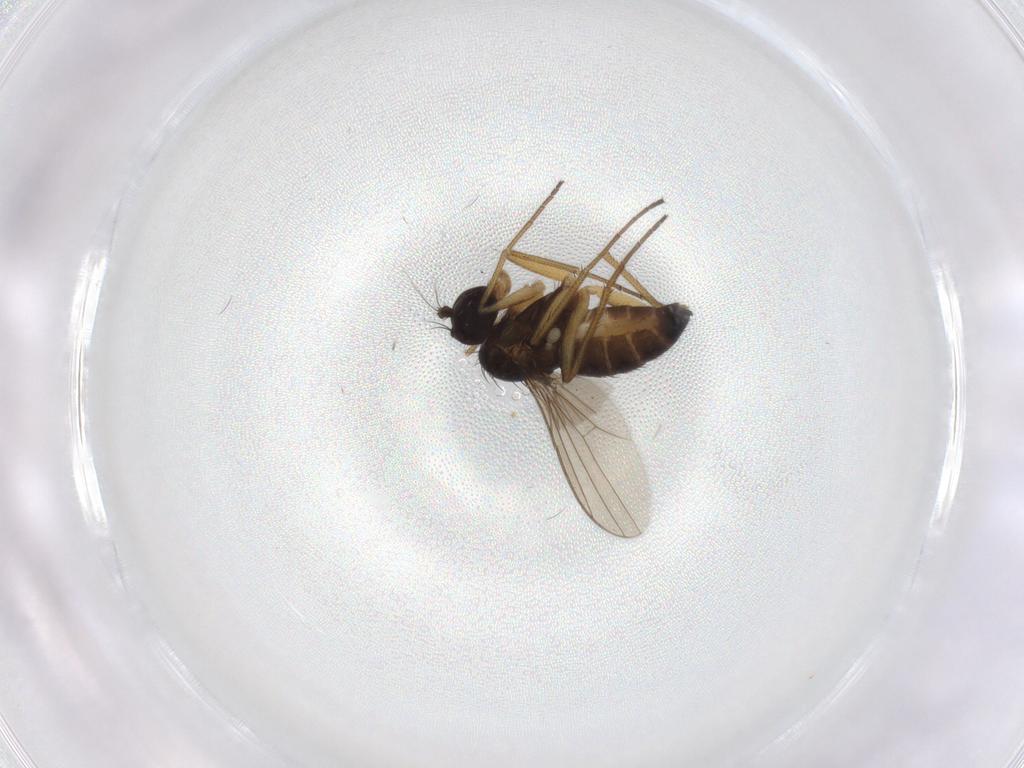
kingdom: Animalia
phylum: Arthropoda
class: Insecta
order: Diptera
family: Dolichopodidae
